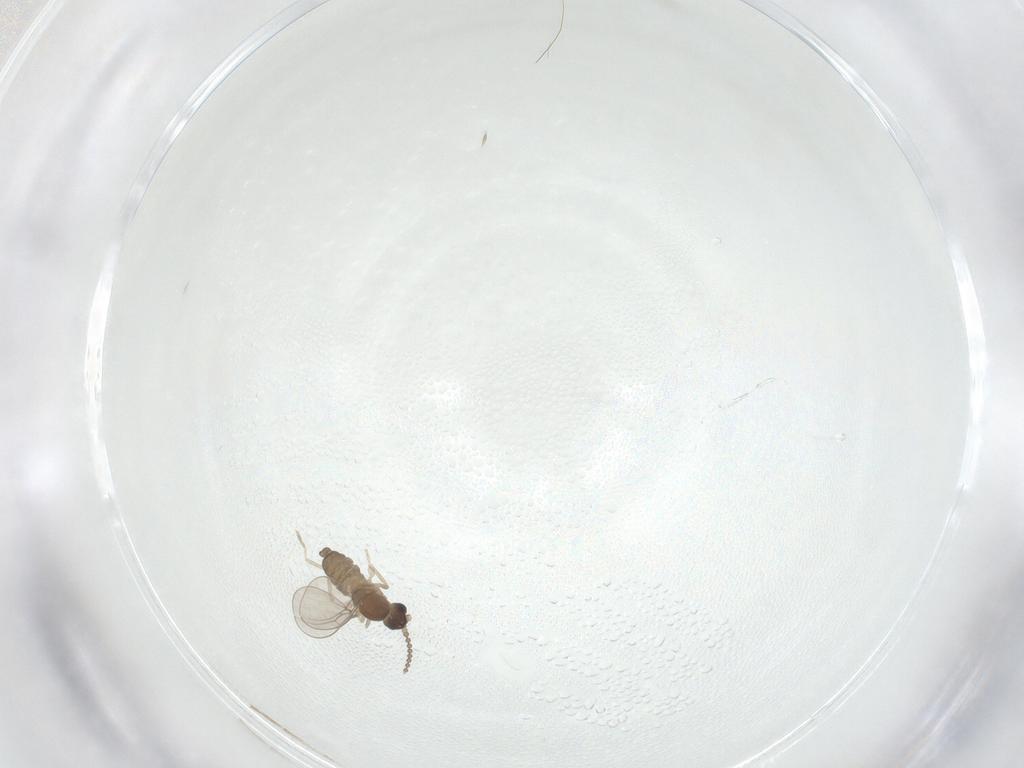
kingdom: Animalia
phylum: Arthropoda
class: Insecta
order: Diptera
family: Cecidomyiidae
